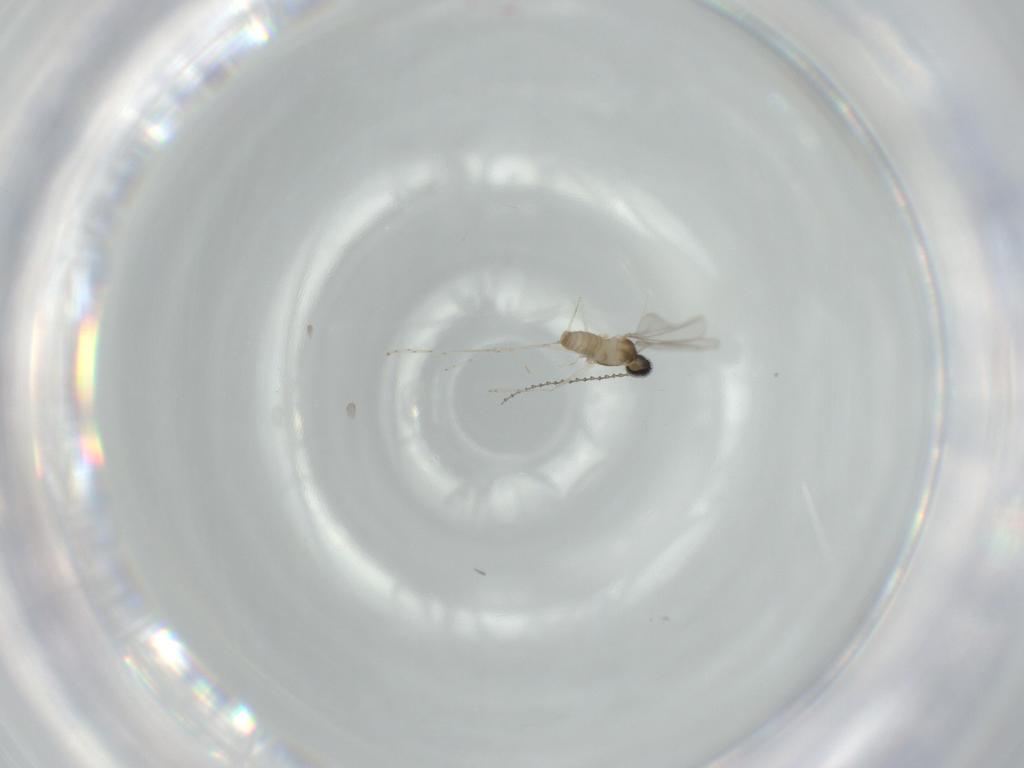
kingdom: Animalia
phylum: Arthropoda
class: Insecta
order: Diptera
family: Cecidomyiidae
